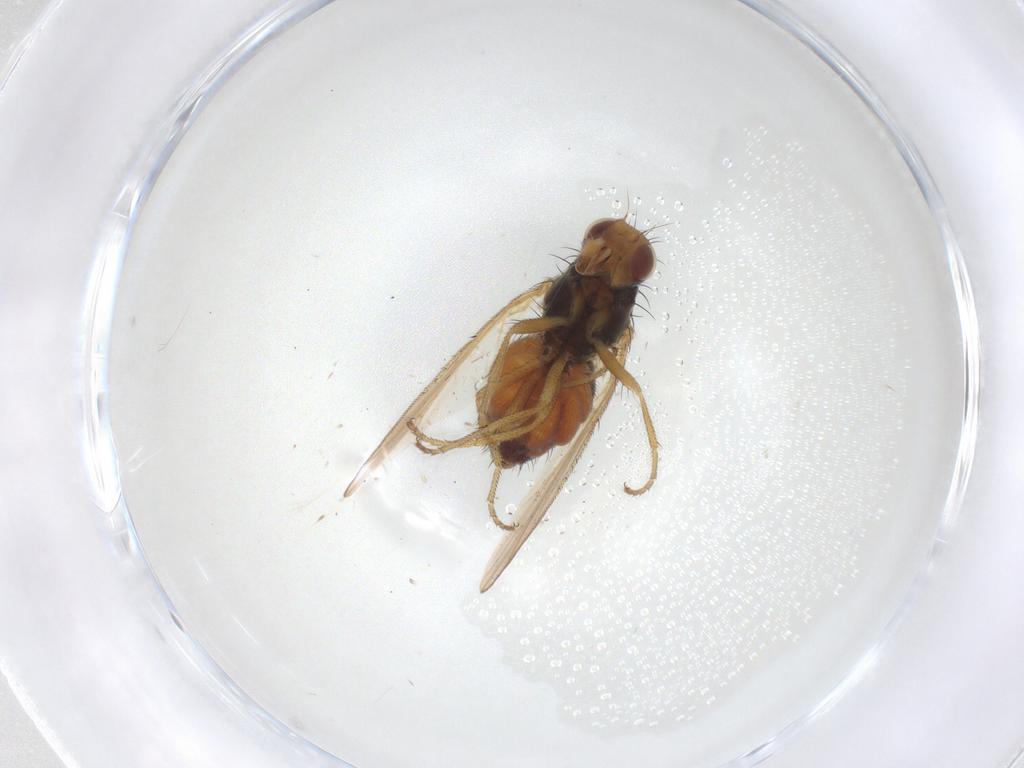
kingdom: Animalia
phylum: Arthropoda
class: Insecta
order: Diptera
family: Heleomyzidae
